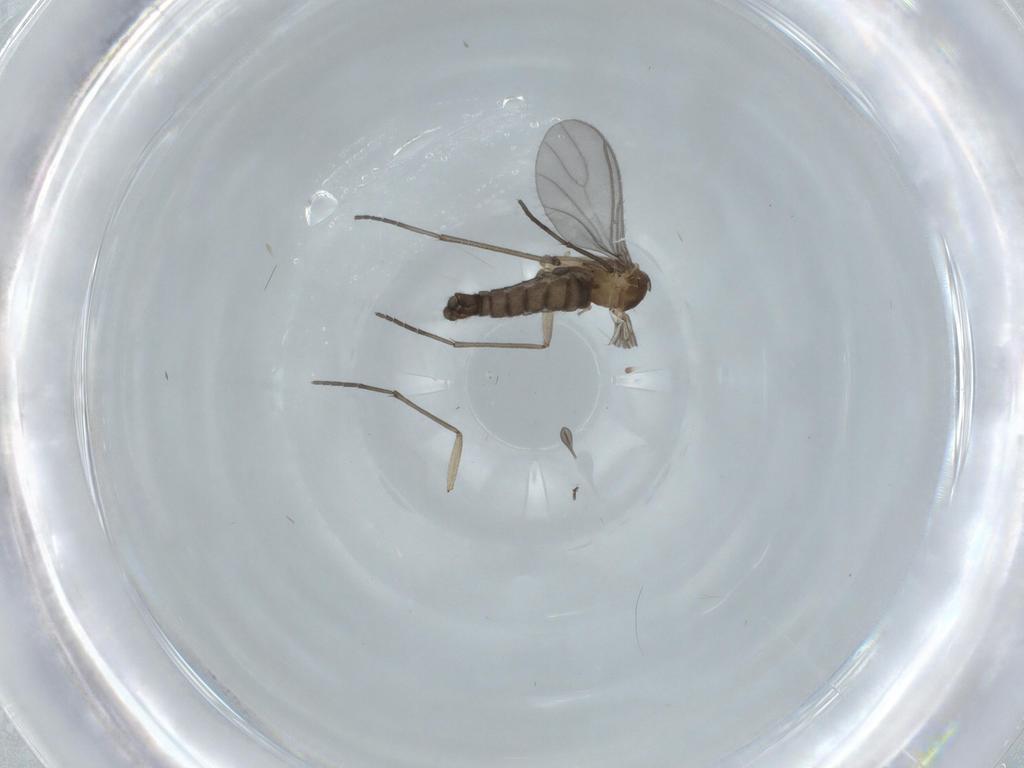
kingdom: Animalia
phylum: Arthropoda
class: Insecta
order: Diptera
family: Sciaridae
